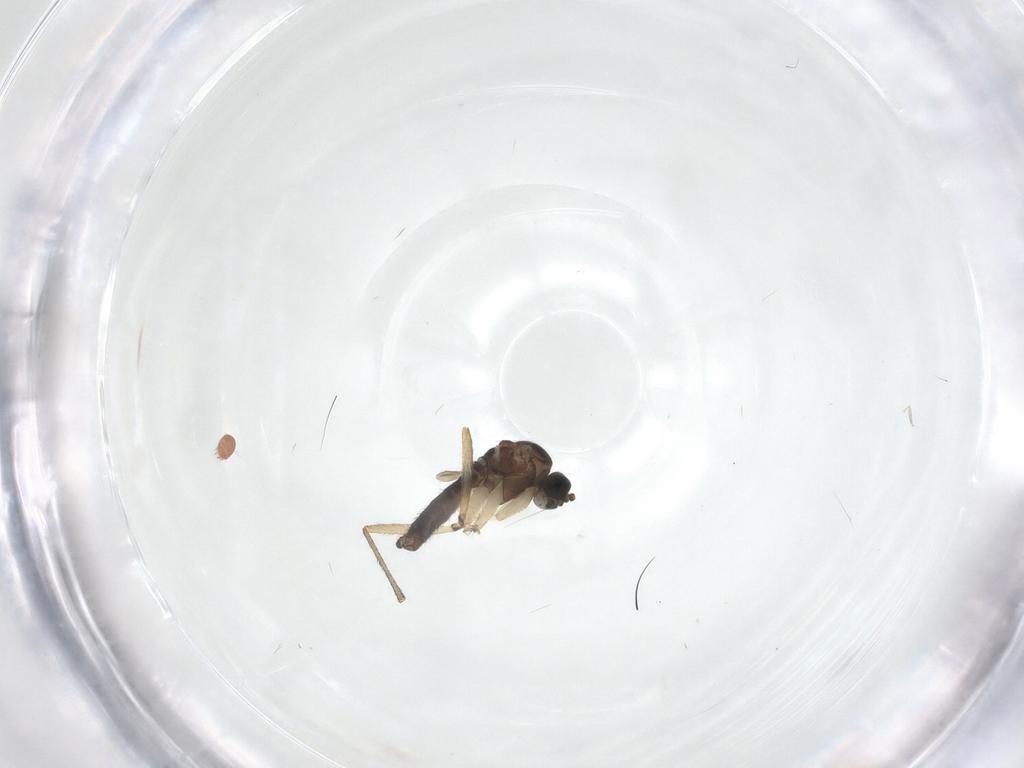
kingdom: Animalia
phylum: Arthropoda
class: Insecta
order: Diptera
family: Sciaridae
